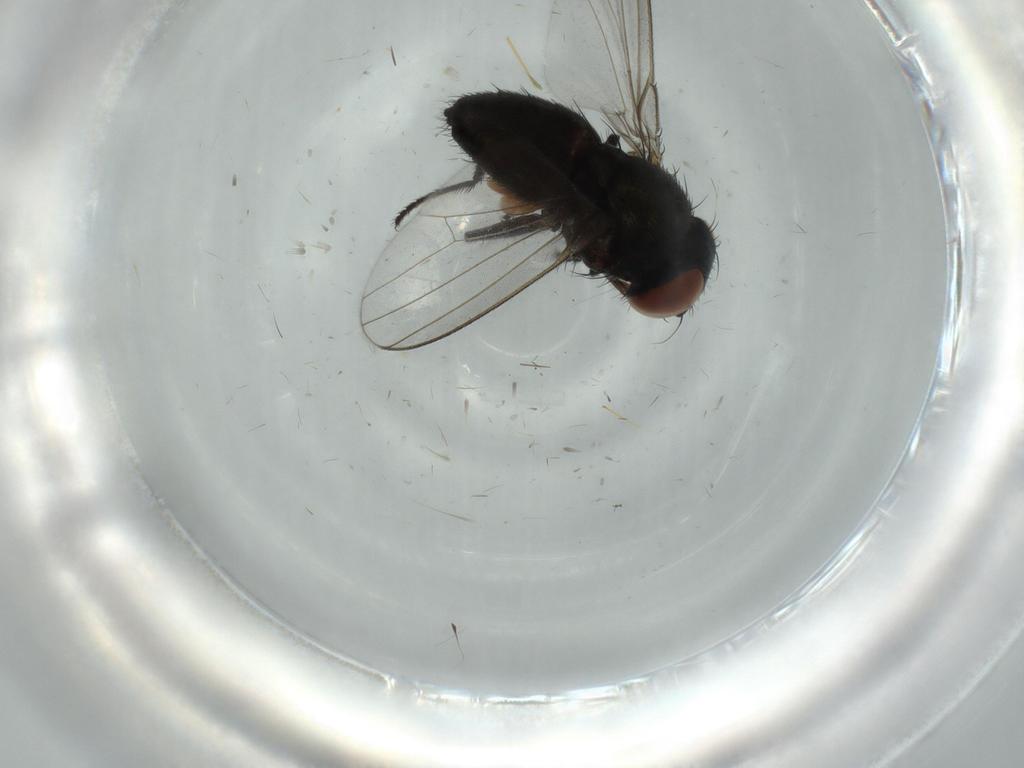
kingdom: Animalia
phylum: Arthropoda
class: Insecta
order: Diptera
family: Milichiidae
